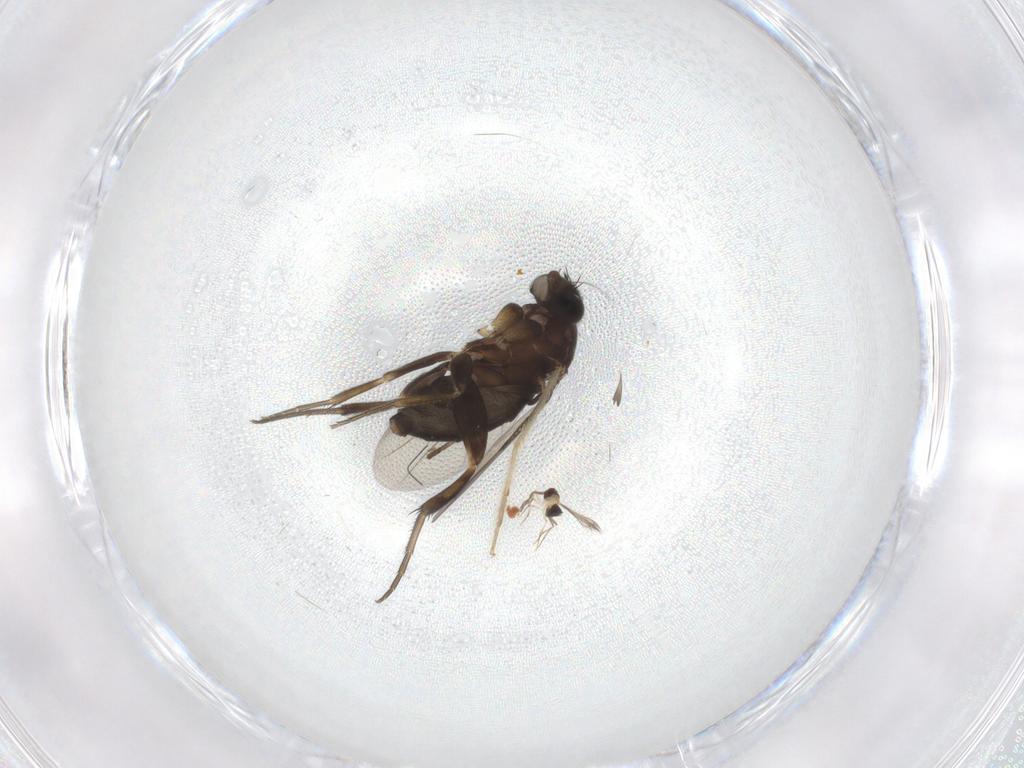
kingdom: Animalia
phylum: Arthropoda
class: Insecta
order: Diptera
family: Phoridae
